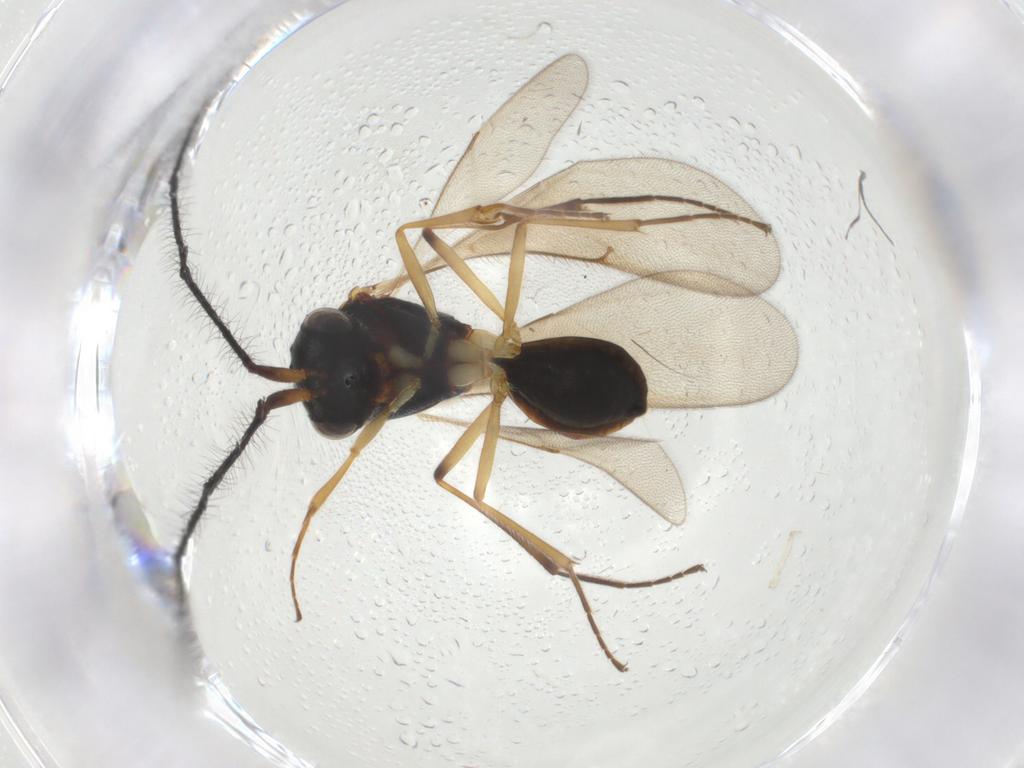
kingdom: Animalia
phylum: Arthropoda
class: Insecta
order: Hymenoptera
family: Scelionidae
